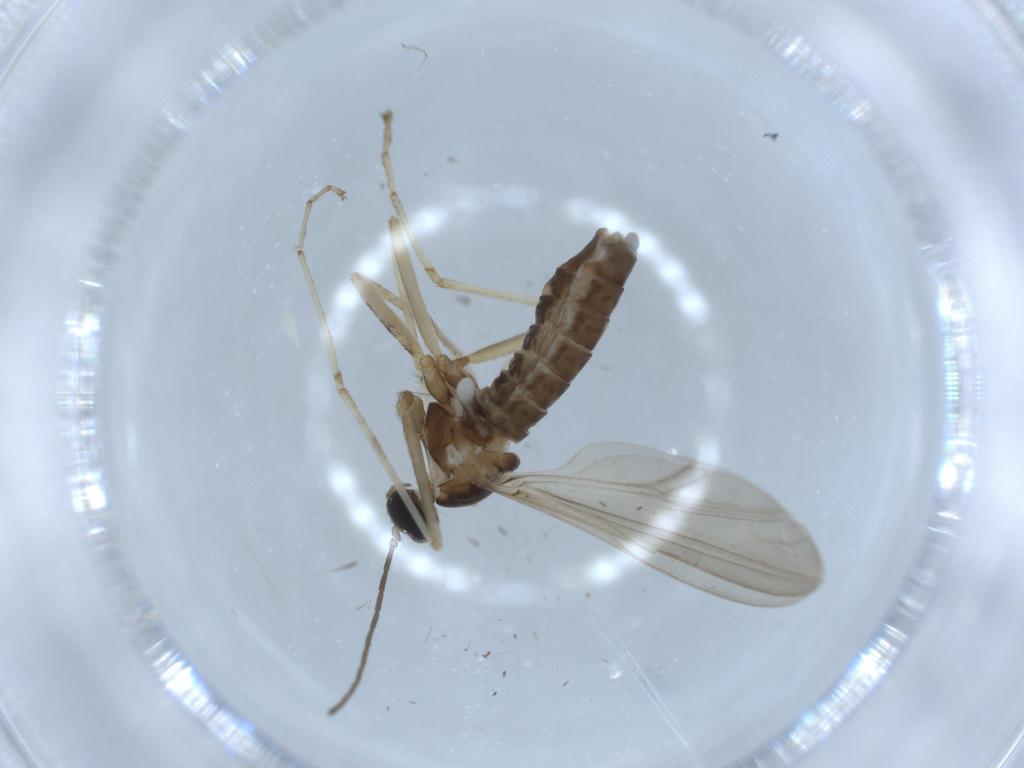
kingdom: Animalia
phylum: Arthropoda
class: Insecta
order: Diptera
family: Cecidomyiidae
